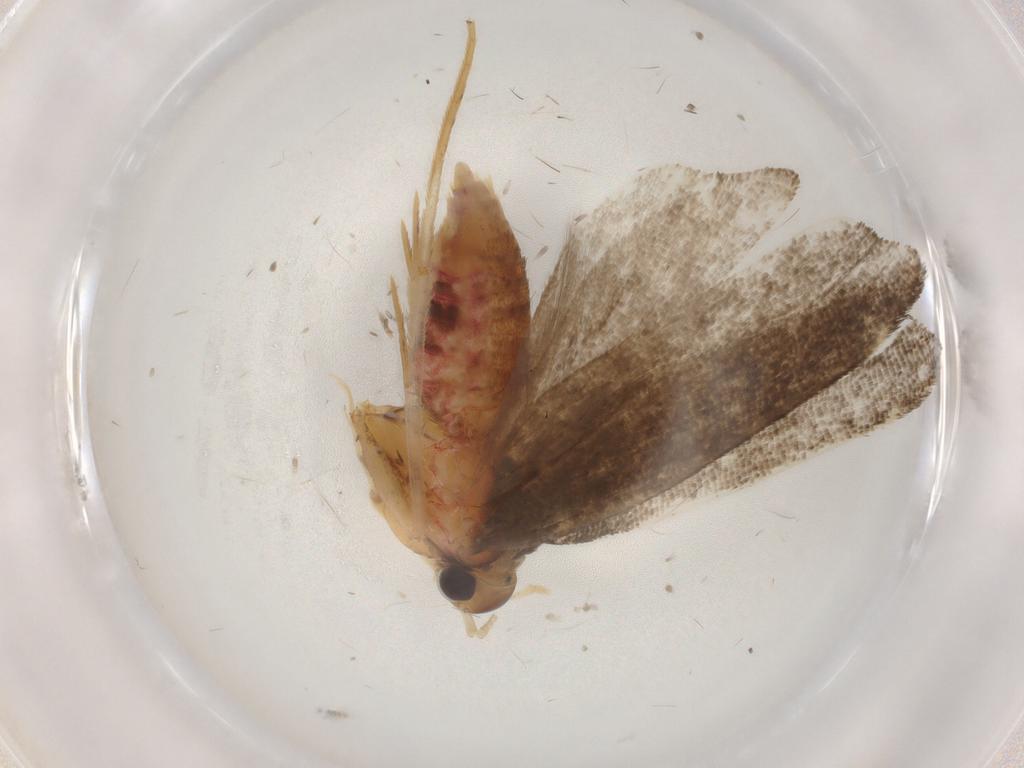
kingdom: Animalia
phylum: Arthropoda
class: Insecta
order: Lepidoptera
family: Lecithoceridae
